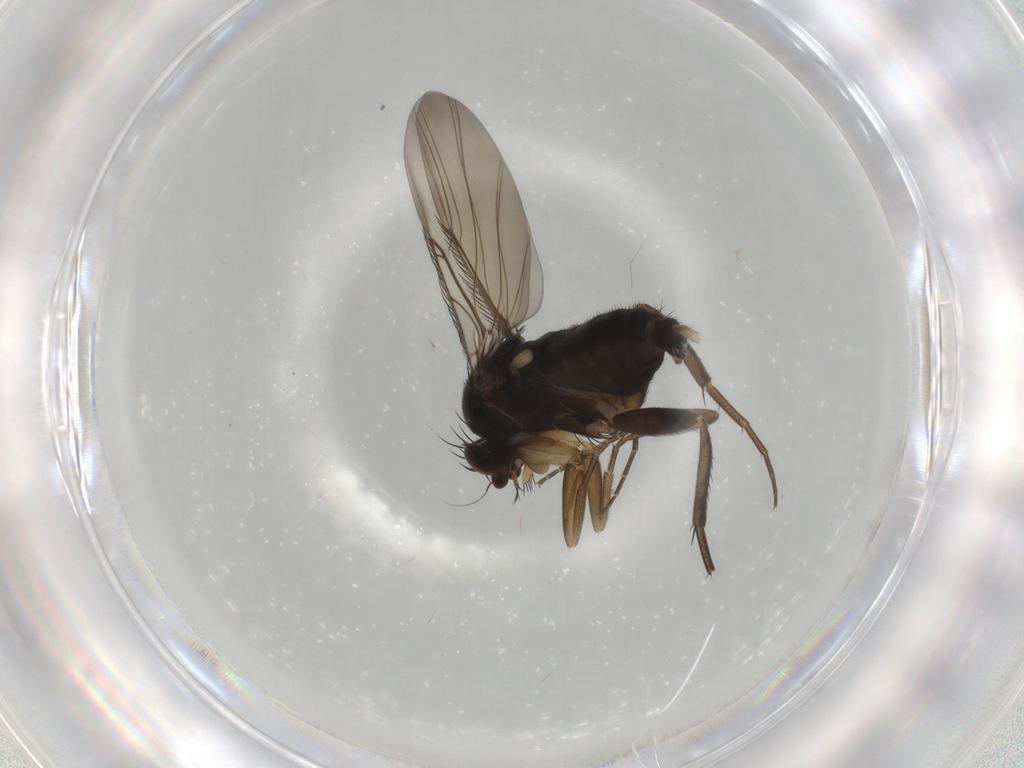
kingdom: Animalia
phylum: Arthropoda
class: Insecta
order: Diptera
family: Phoridae
